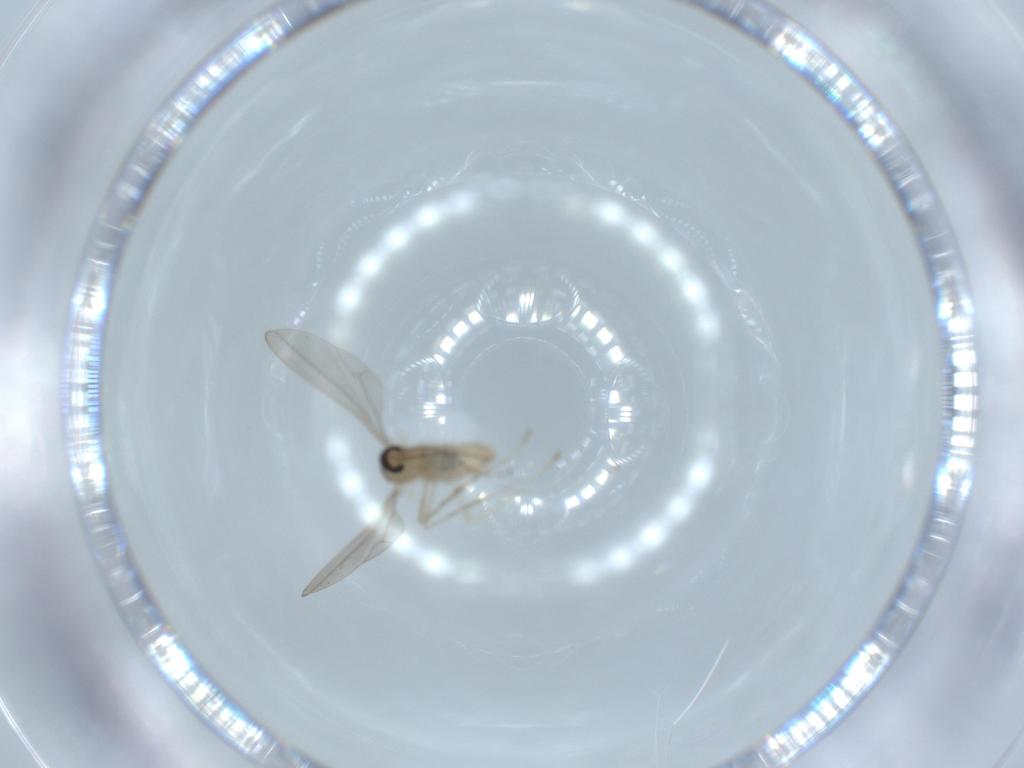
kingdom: Animalia
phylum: Arthropoda
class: Insecta
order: Diptera
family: Cecidomyiidae
